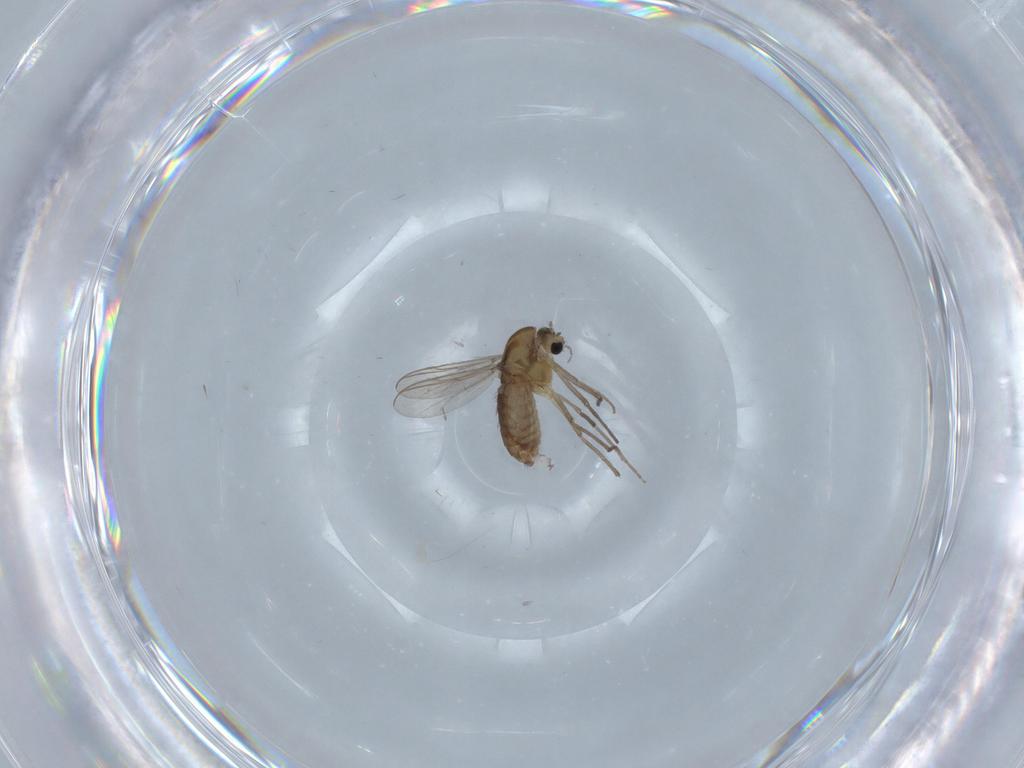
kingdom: Animalia
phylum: Arthropoda
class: Insecta
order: Diptera
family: Chironomidae
